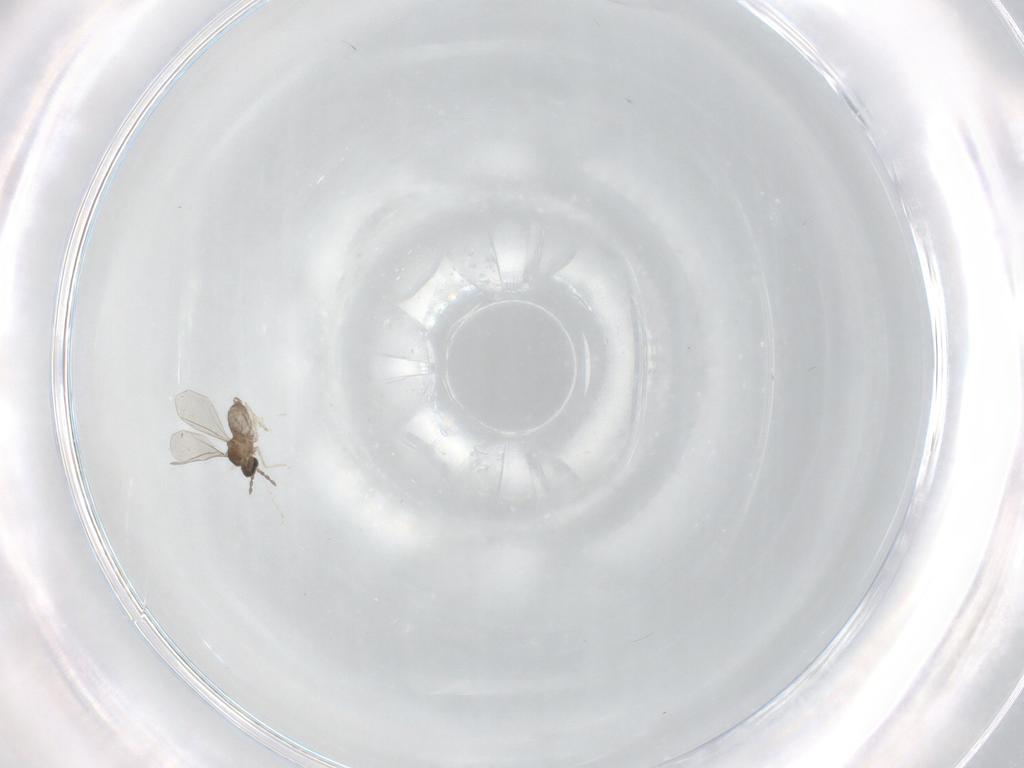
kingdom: Animalia
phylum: Arthropoda
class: Insecta
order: Diptera
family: Cecidomyiidae
